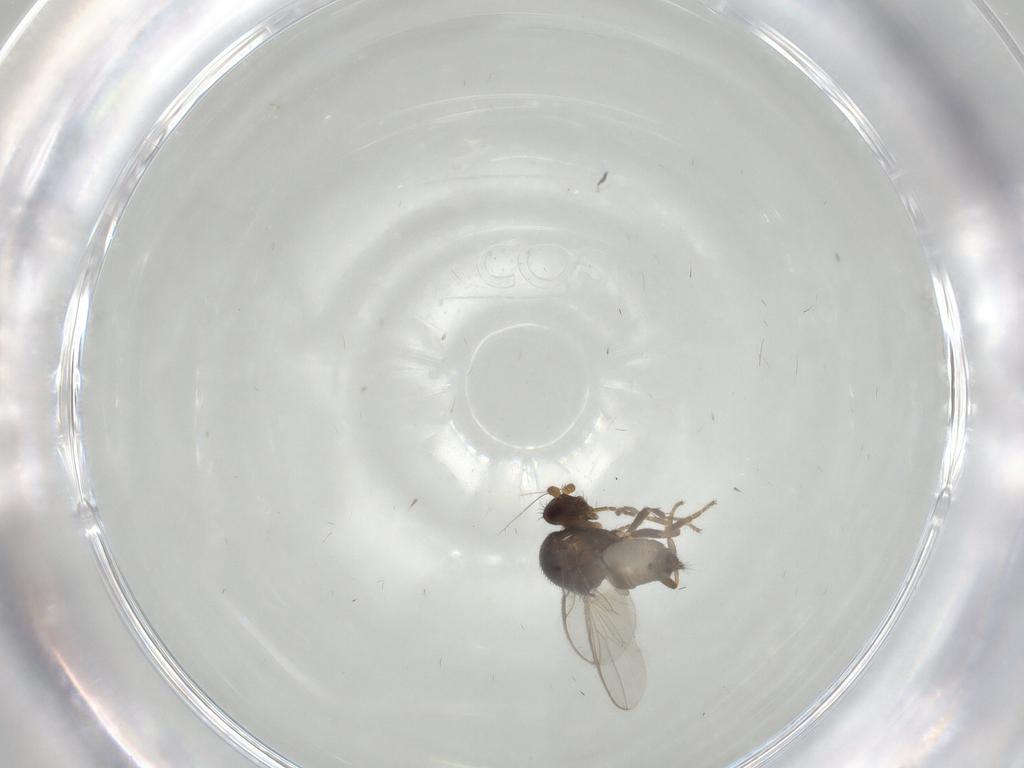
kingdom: Animalia
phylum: Arthropoda
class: Insecta
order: Diptera
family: Sphaeroceridae
